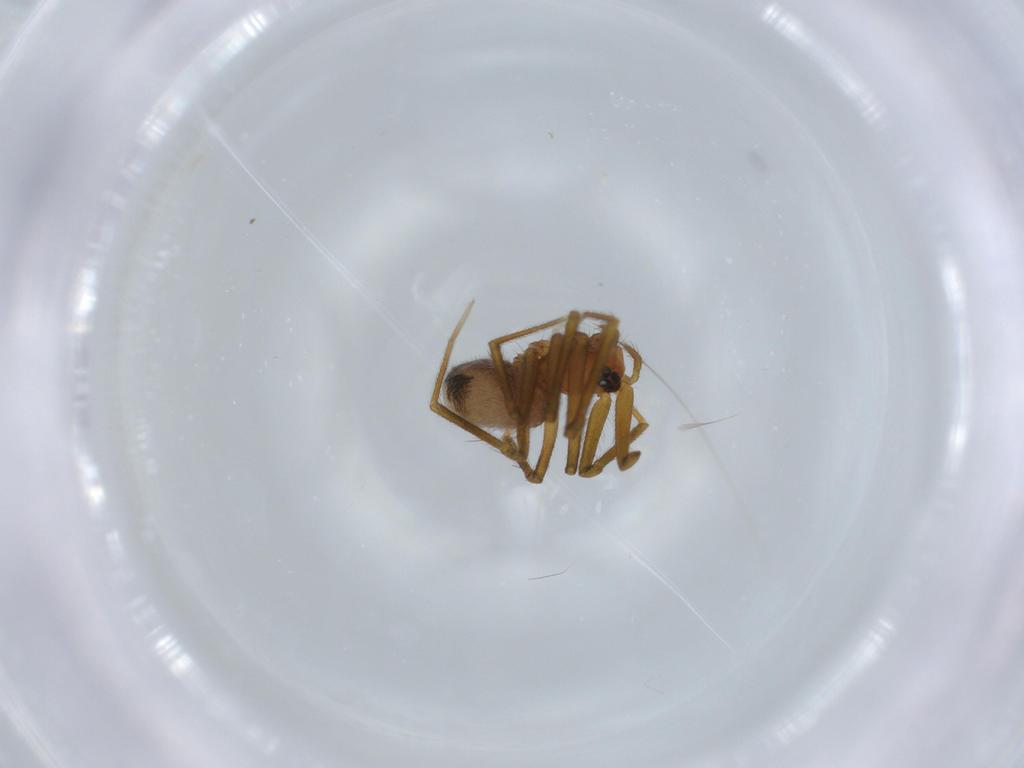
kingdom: Animalia
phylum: Arthropoda
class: Arachnida
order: Araneae
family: Linyphiidae
